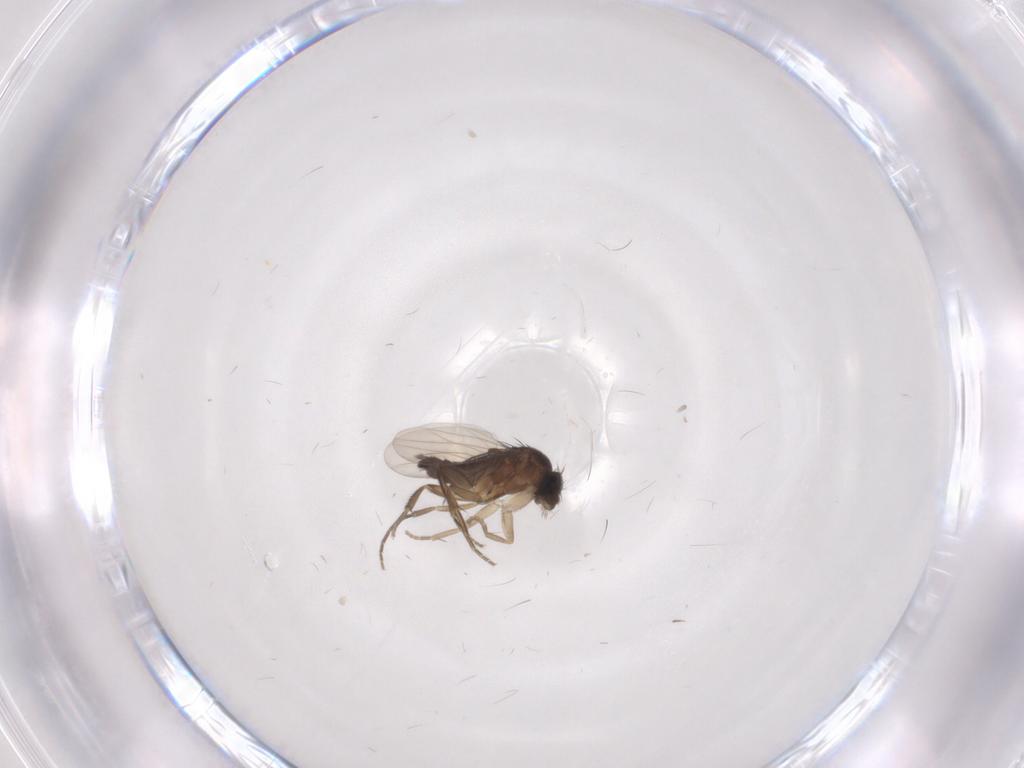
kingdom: Animalia
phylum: Arthropoda
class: Insecta
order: Diptera
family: Phoridae
